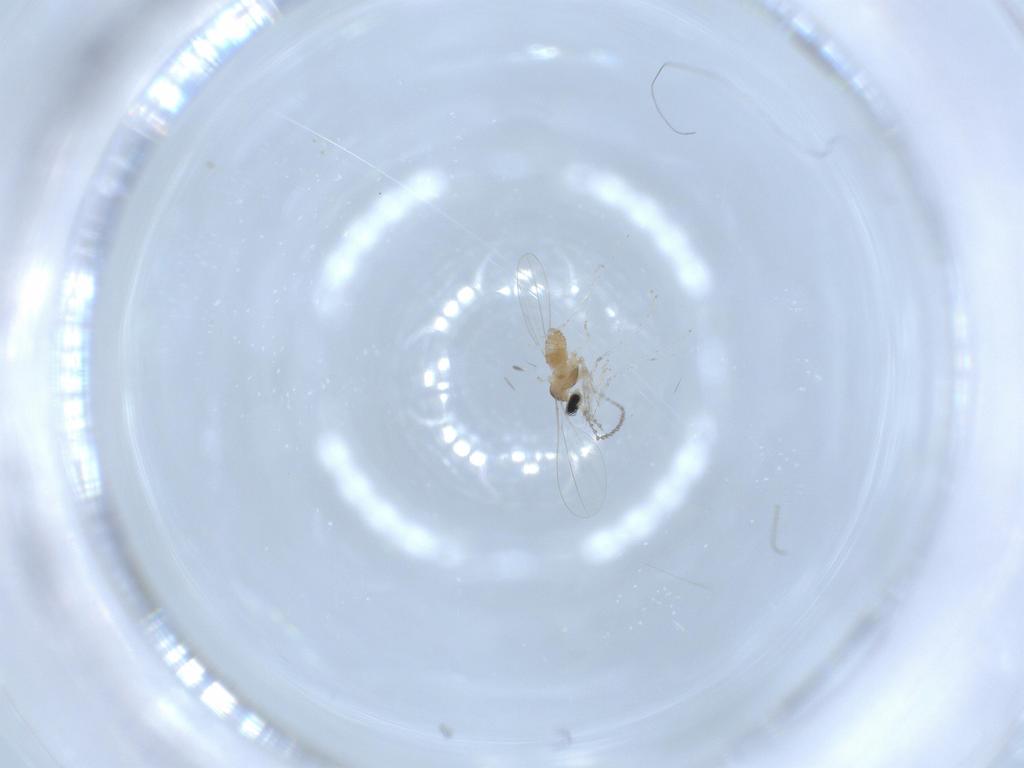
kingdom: Animalia
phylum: Arthropoda
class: Insecta
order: Diptera
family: Cecidomyiidae
